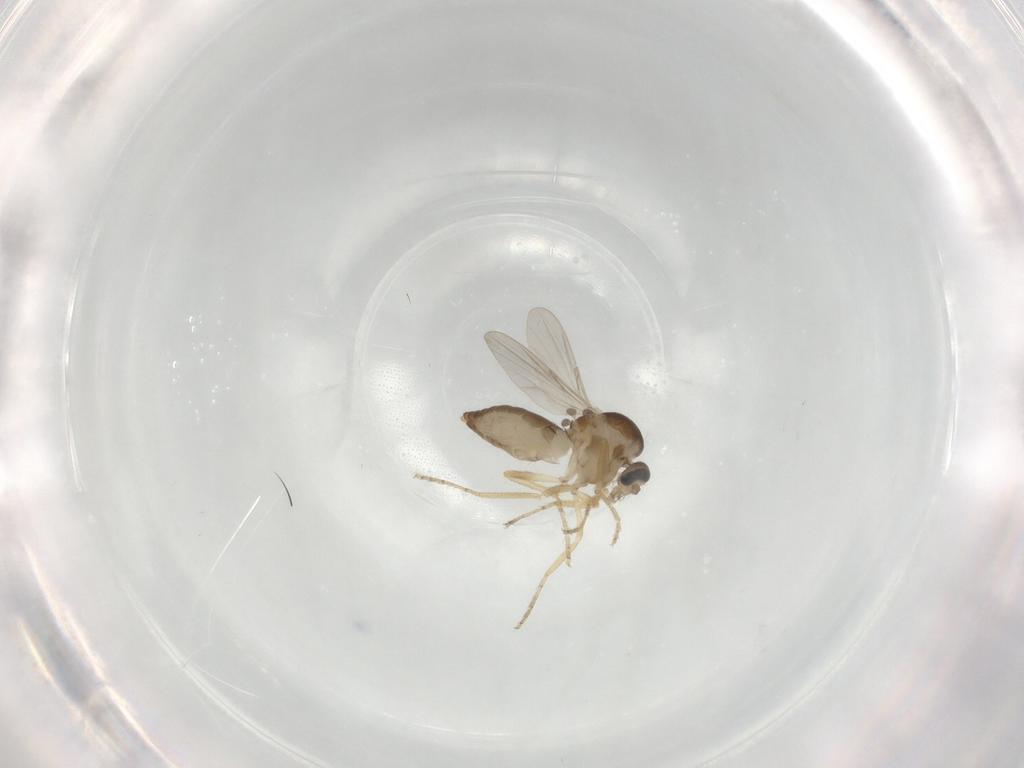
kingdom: Animalia
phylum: Arthropoda
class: Insecta
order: Diptera
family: Ceratopogonidae
